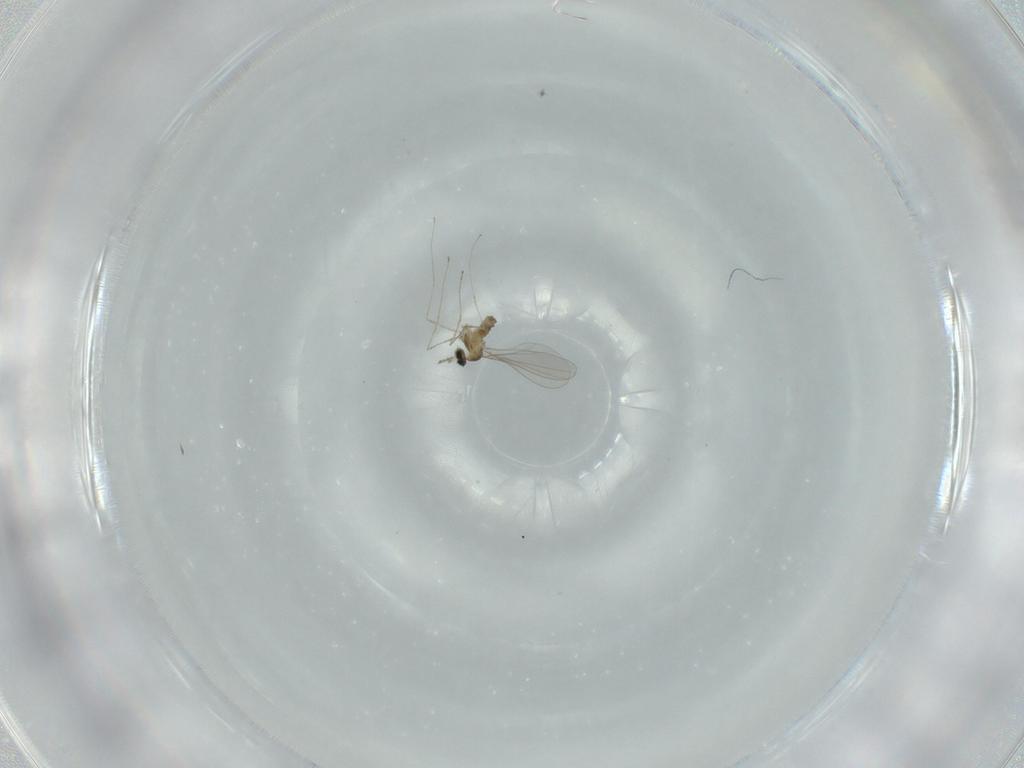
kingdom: Animalia
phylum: Arthropoda
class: Insecta
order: Diptera
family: Cecidomyiidae
